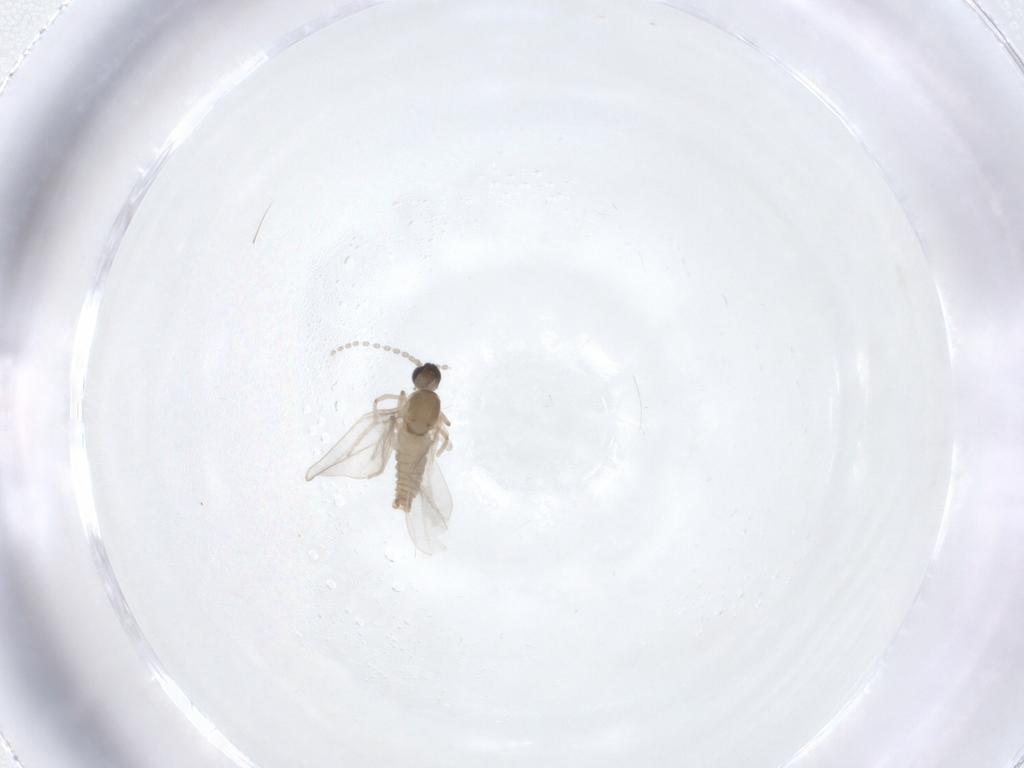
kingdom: Animalia
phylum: Arthropoda
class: Insecta
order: Diptera
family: Cecidomyiidae
